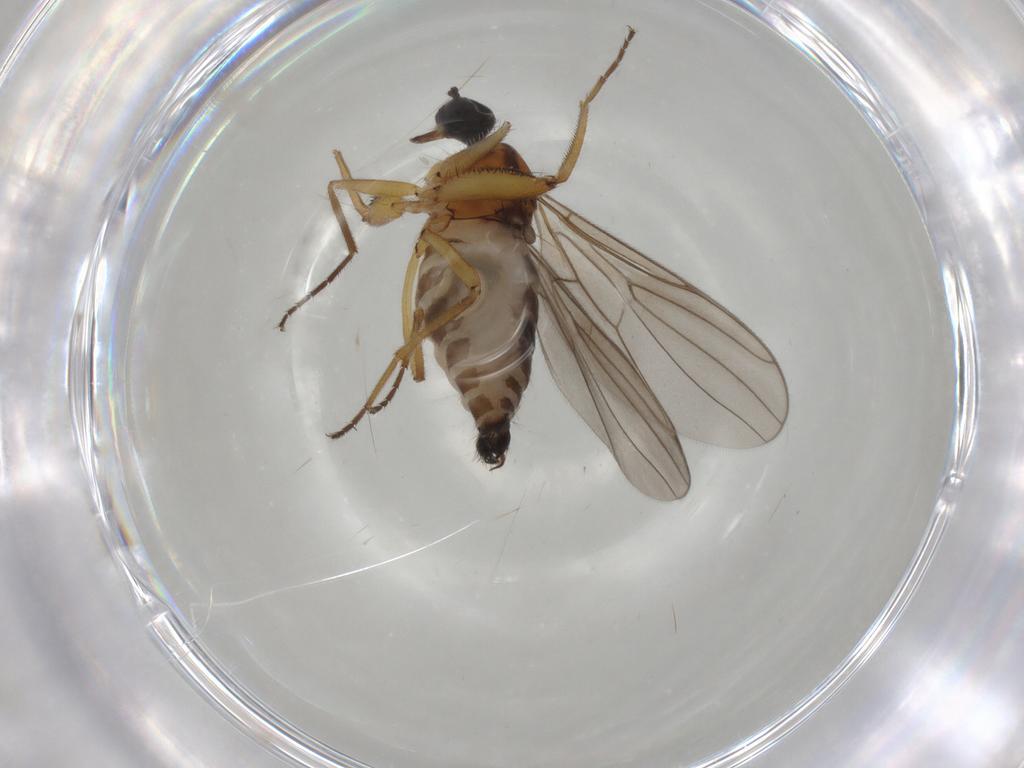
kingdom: Animalia
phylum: Arthropoda
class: Insecta
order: Diptera
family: Hybotidae
